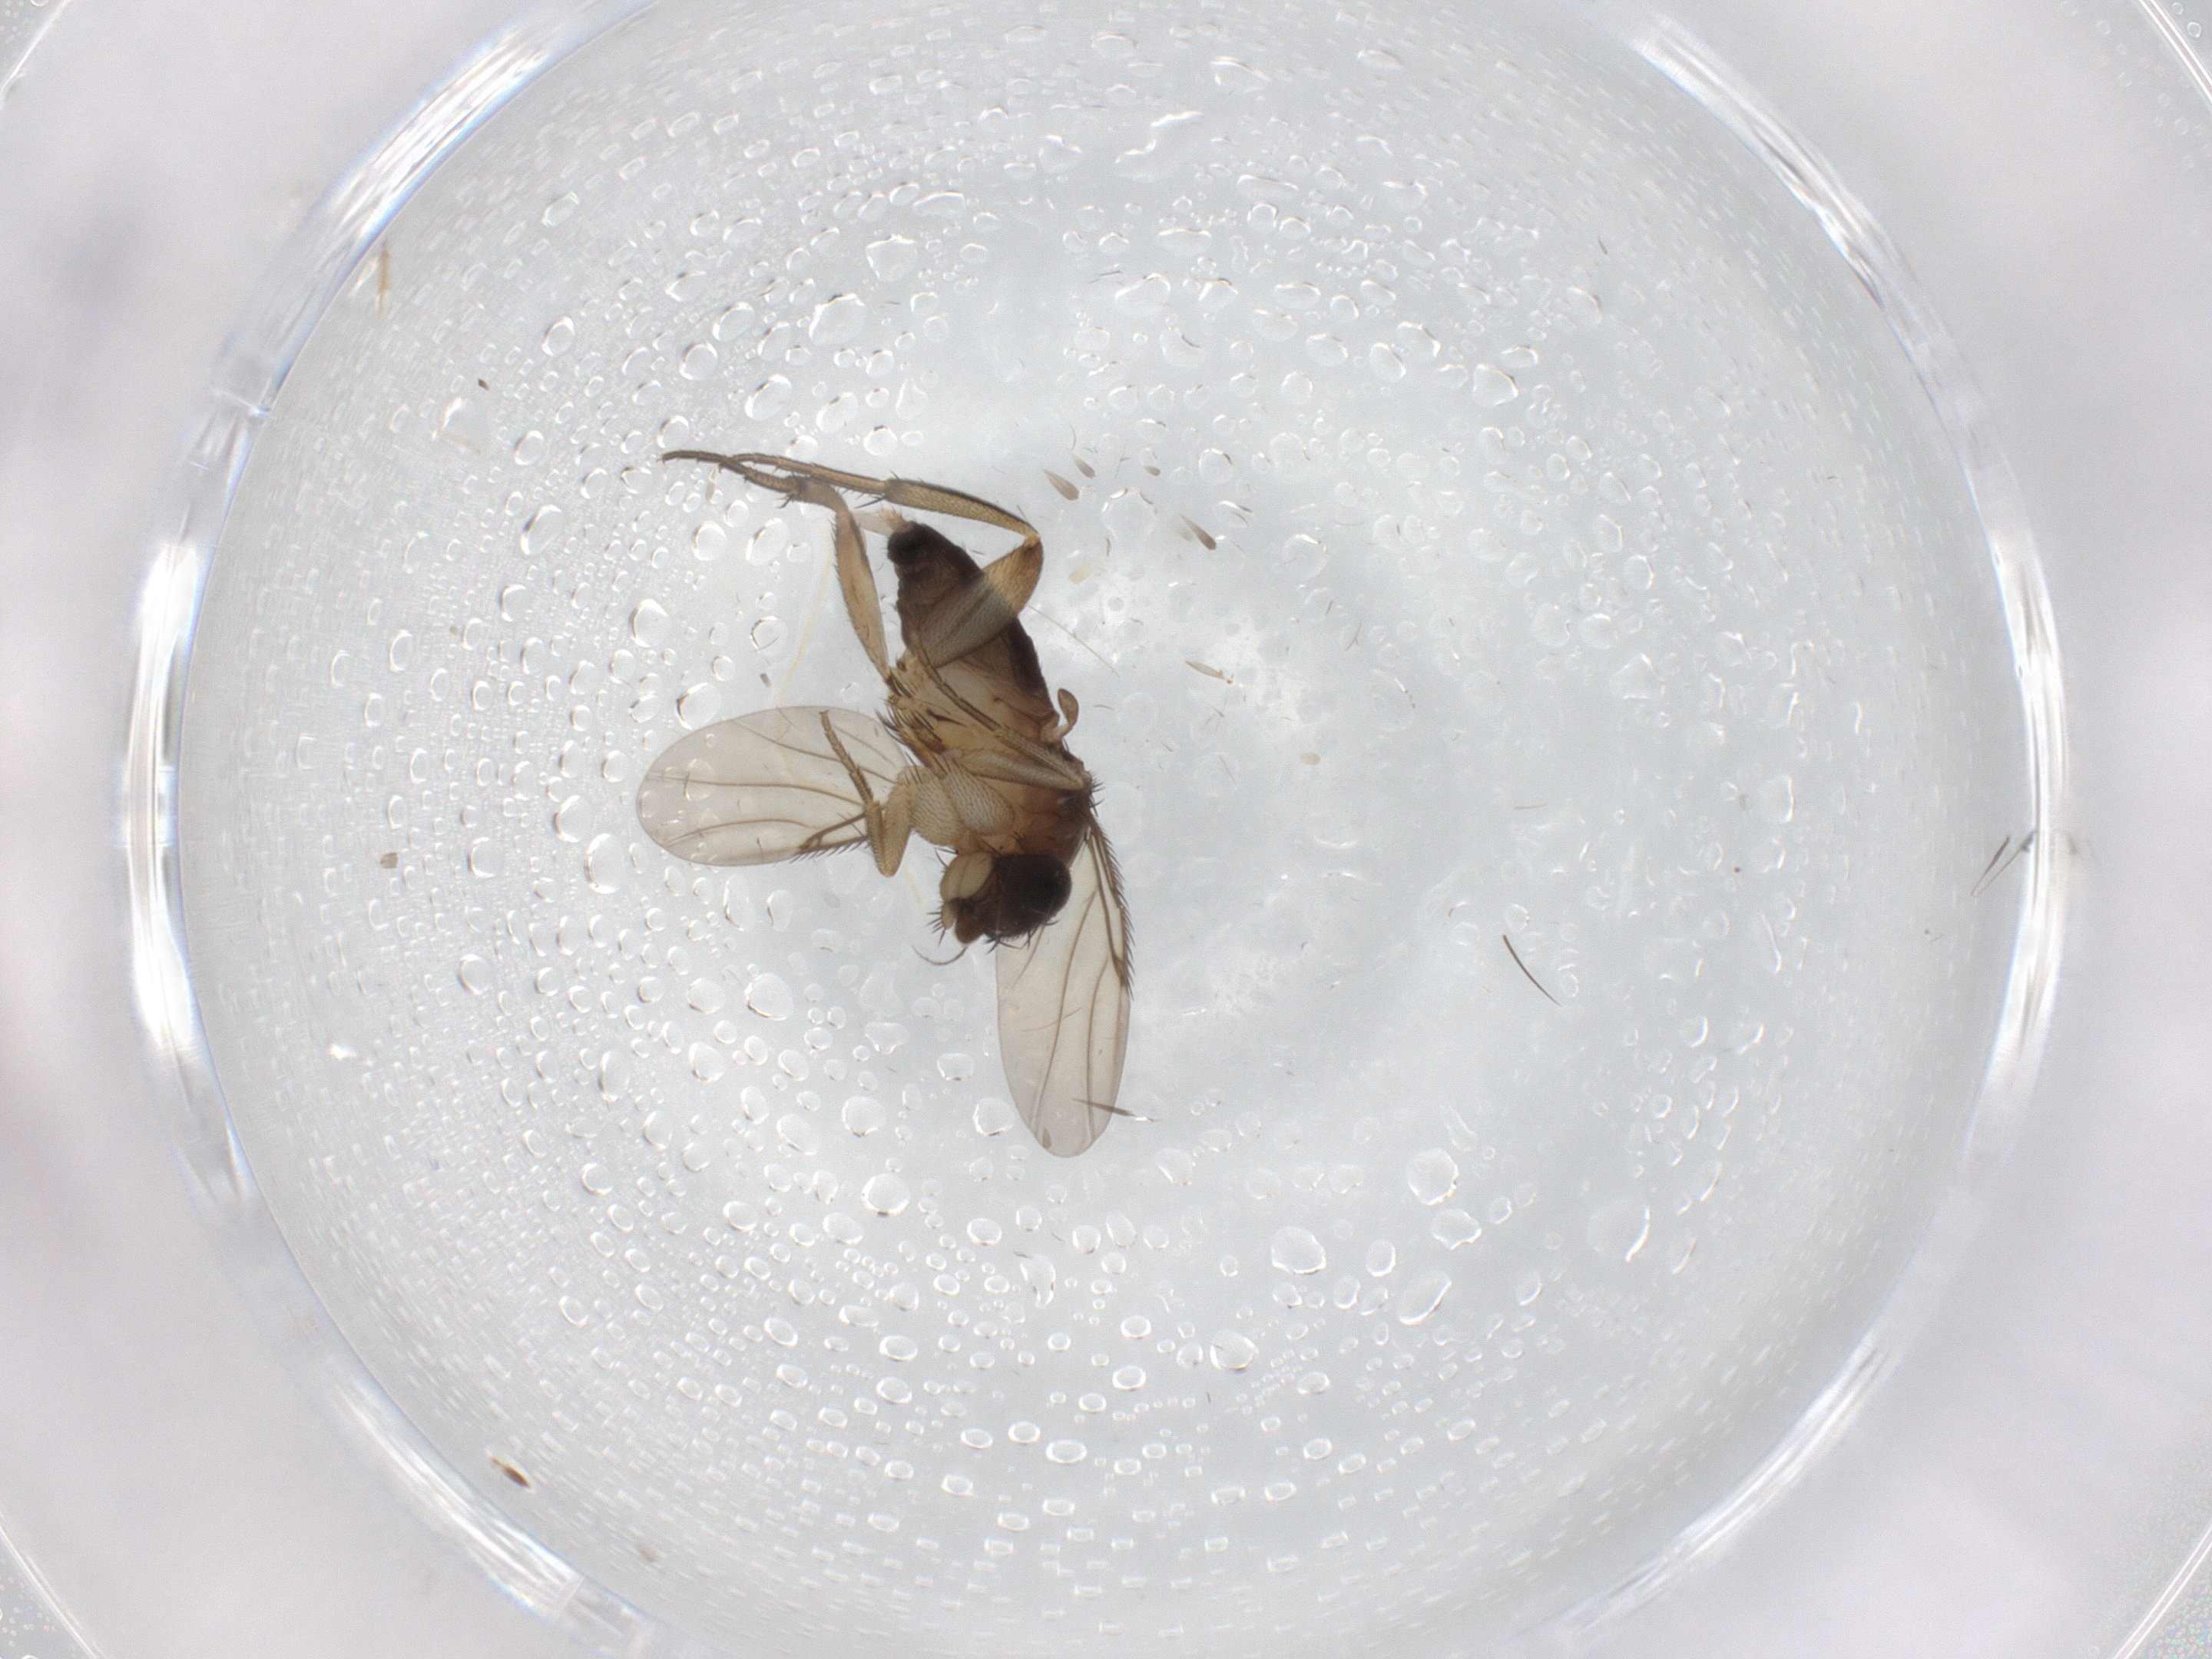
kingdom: Animalia
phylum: Arthropoda
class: Insecta
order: Diptera
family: Phoridae
